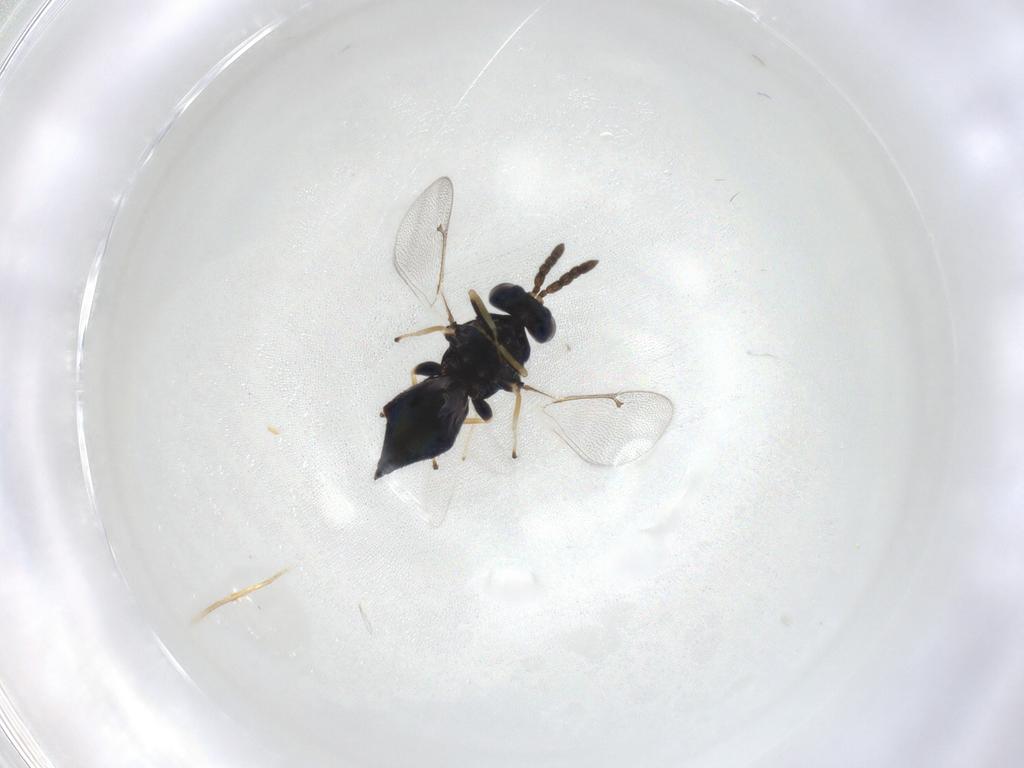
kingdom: Animalia
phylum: Arthropoda
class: Insecta
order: Hymenoptera
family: Eulophidae
